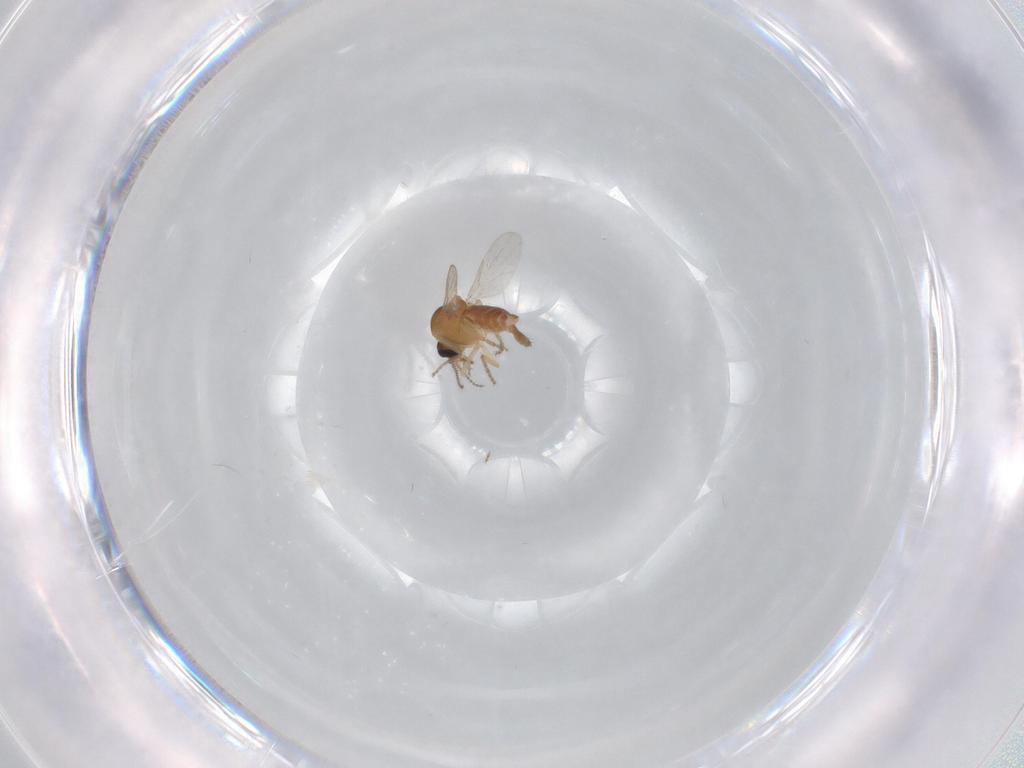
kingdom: Animalia
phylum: Arthropoda
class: Insecta
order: Diptera
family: Ceratopogonidae
